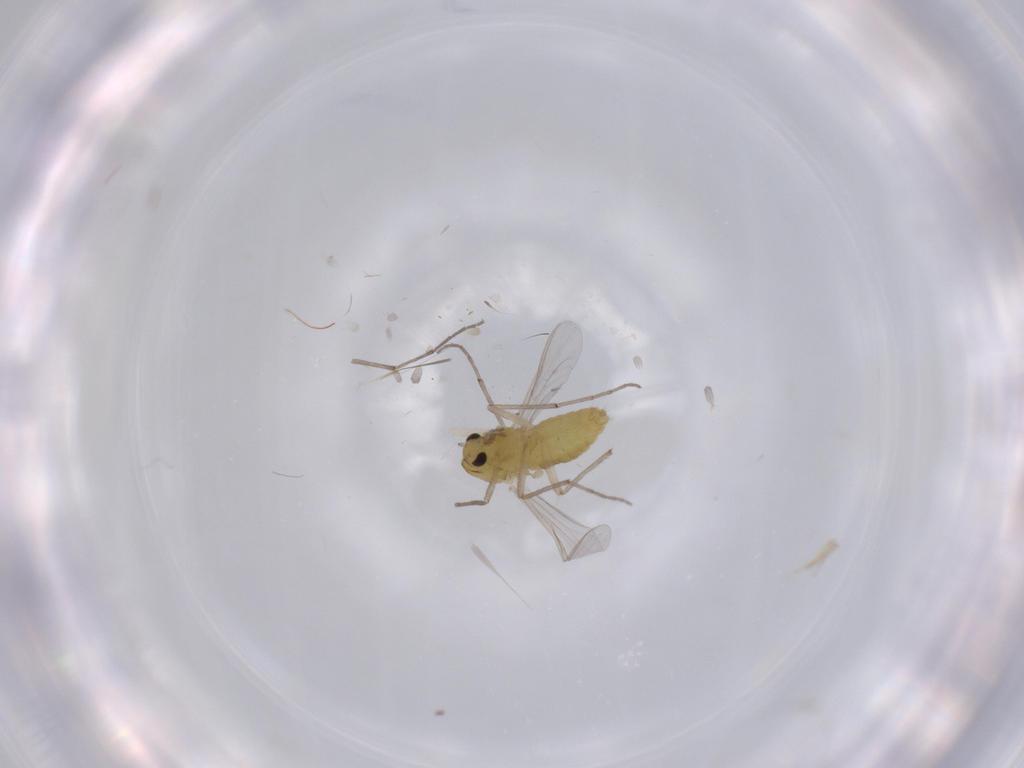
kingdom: Animalia
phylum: Arthropoda
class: Insecta
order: Diptera
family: Chironomidae
